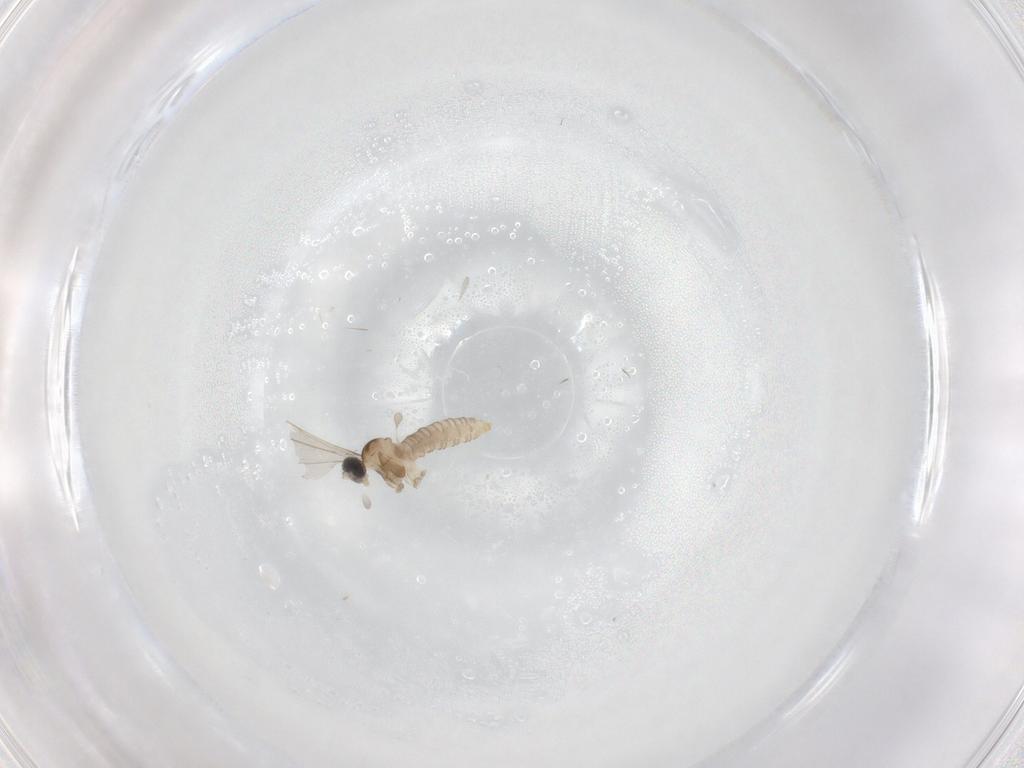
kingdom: Animalia
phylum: Arthropoda
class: Insecta
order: Diptera
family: Cecidomyiidae
